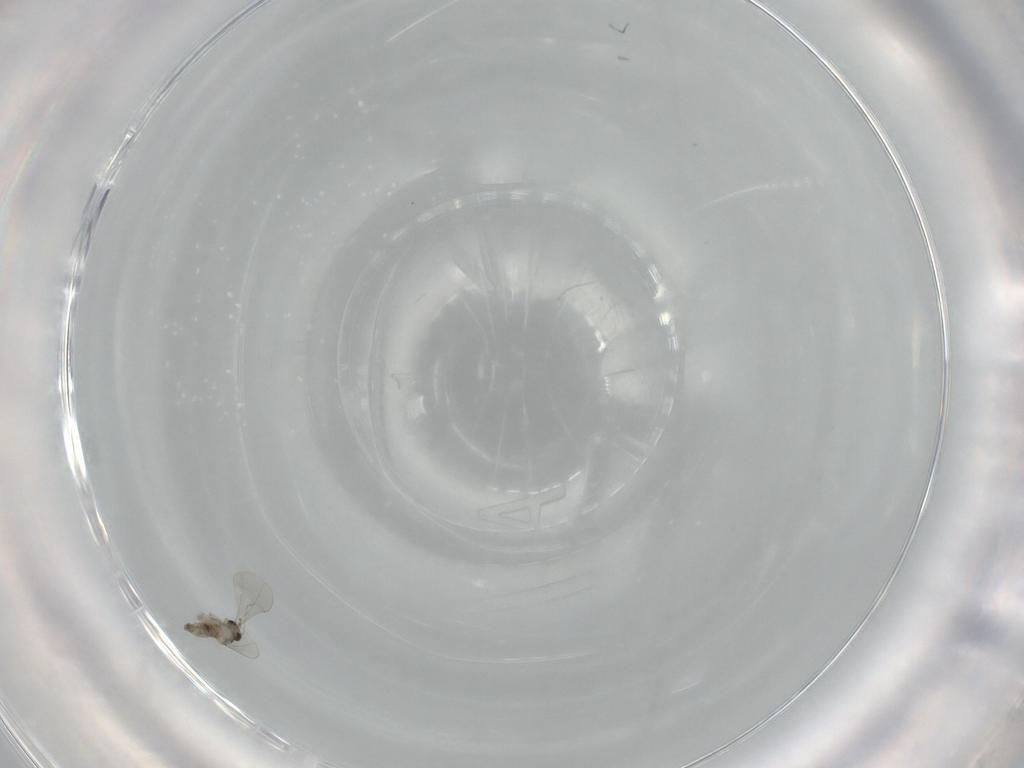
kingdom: Animalia
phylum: Arthropoda
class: Insecta
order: Diptera
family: Cecidomyiidae
